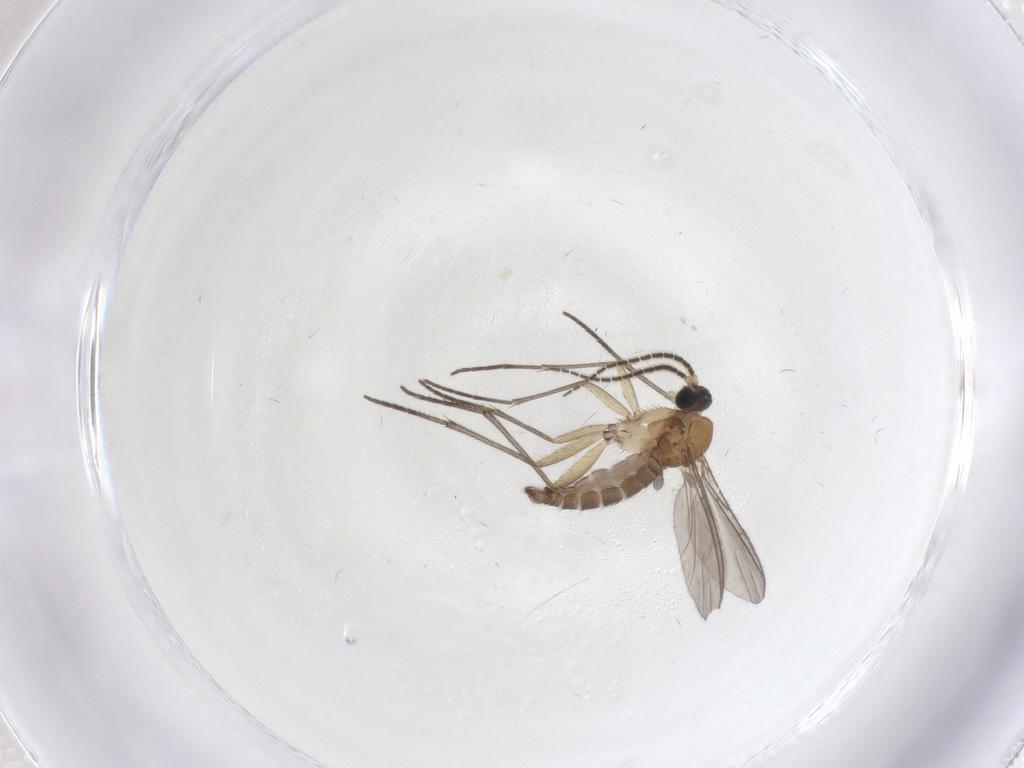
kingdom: Animalia
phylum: Arthropoda
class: Insecta
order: Diptera
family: Sciaridae
